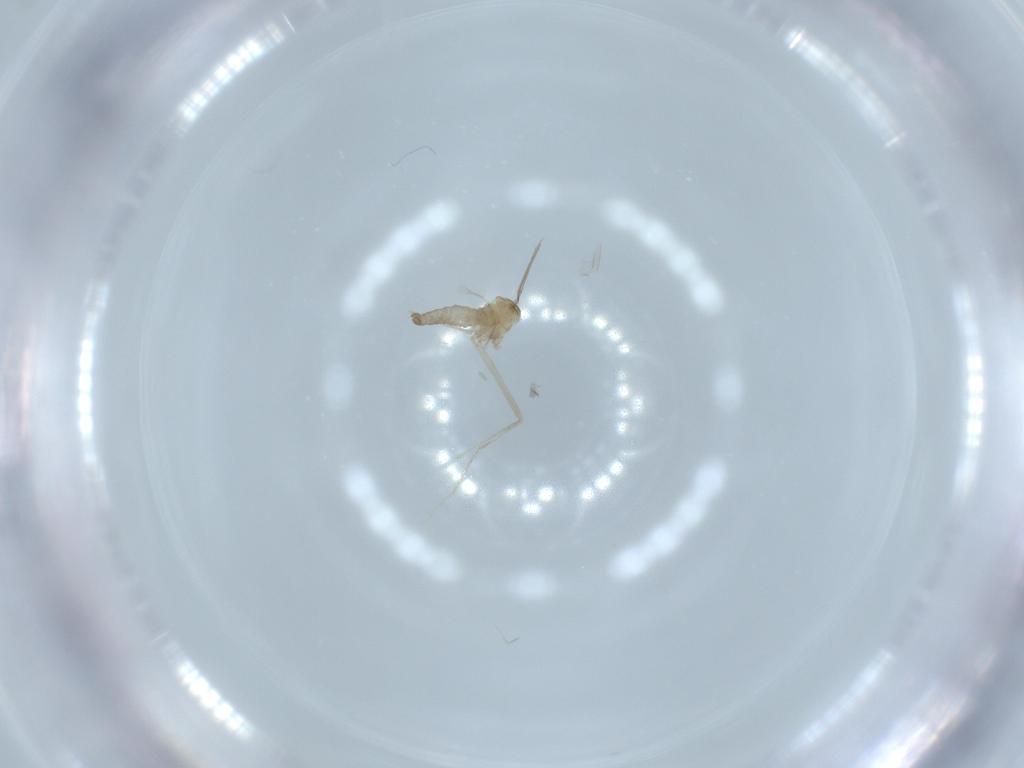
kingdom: Animalia
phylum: Arthropoda
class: Insecta
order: Diptera
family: Cecidomyiidae
